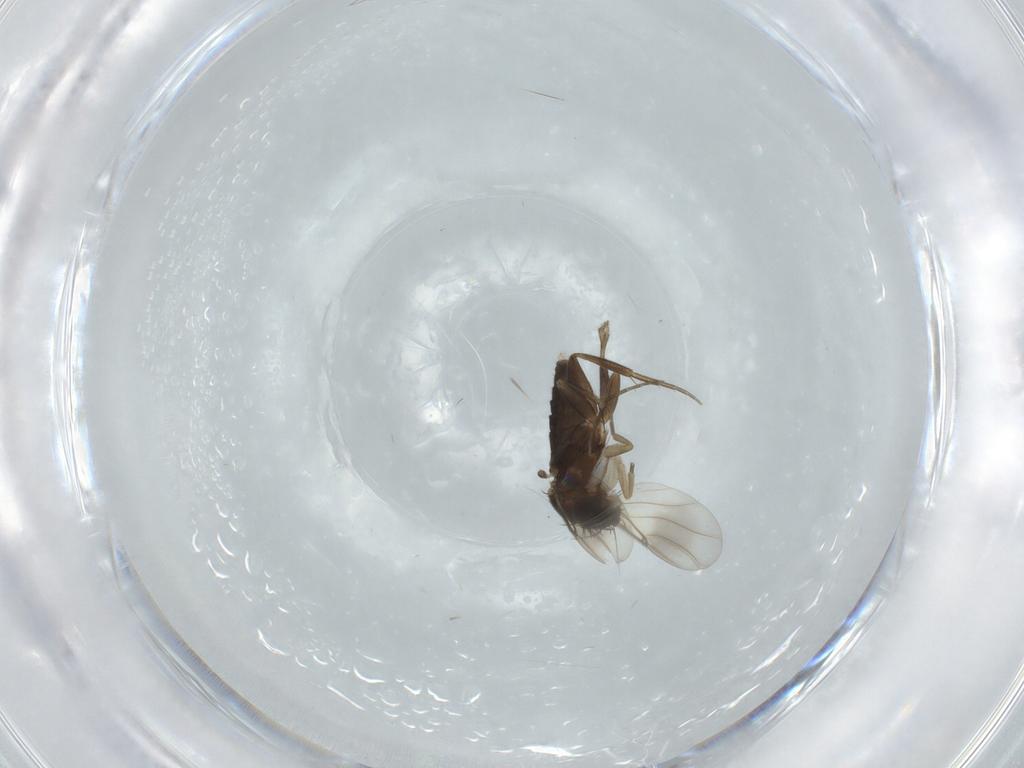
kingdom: Animalia
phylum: Arthropoda
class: Insecta
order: Diptera
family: Phoridae
